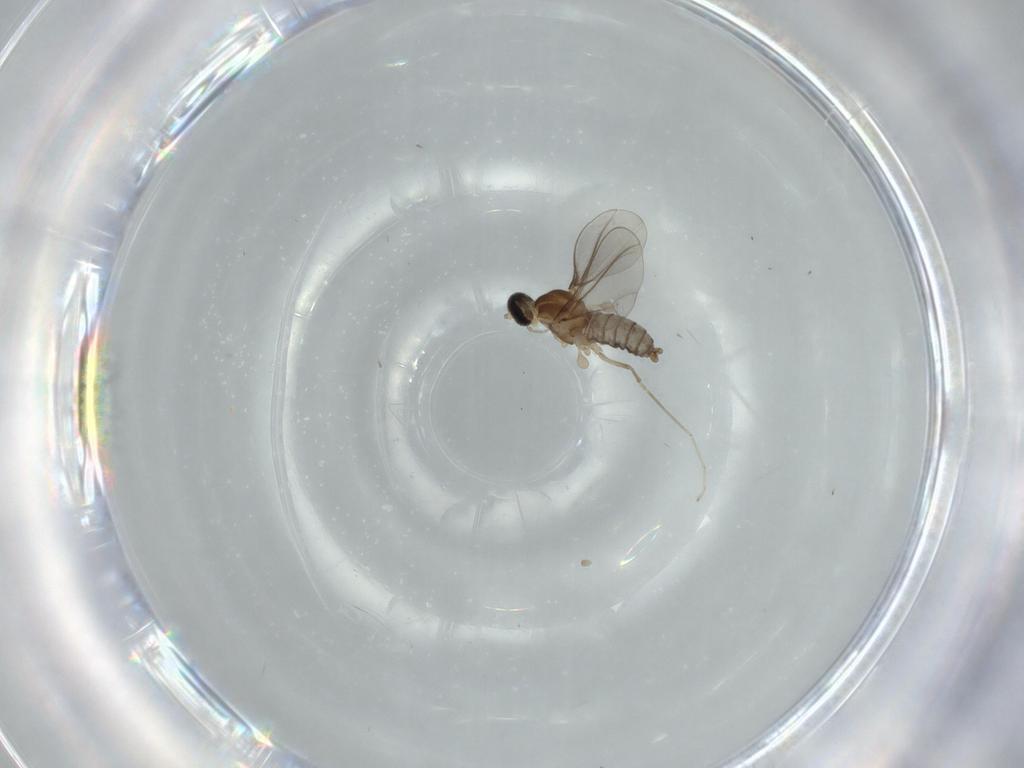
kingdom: Animalia
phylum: Arthropoda
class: Insecta
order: Diptera
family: Cecidomyiidae
